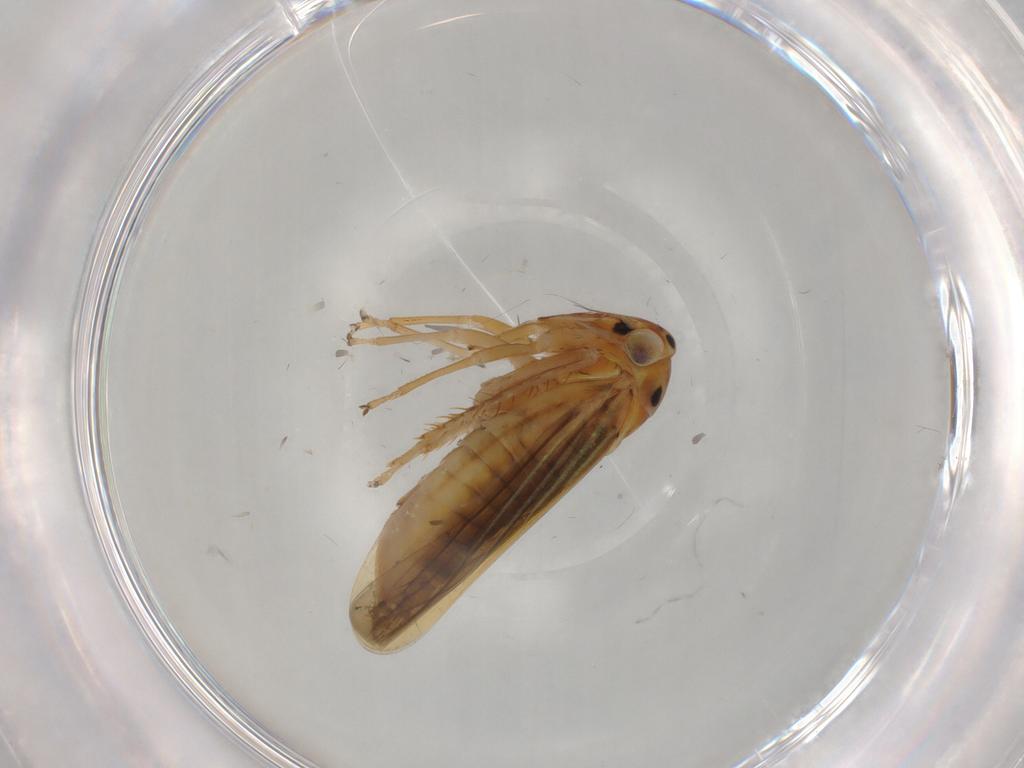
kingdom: Animalia
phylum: Arthropoda
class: Insecta
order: Hemiptera
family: Cicadellidae
